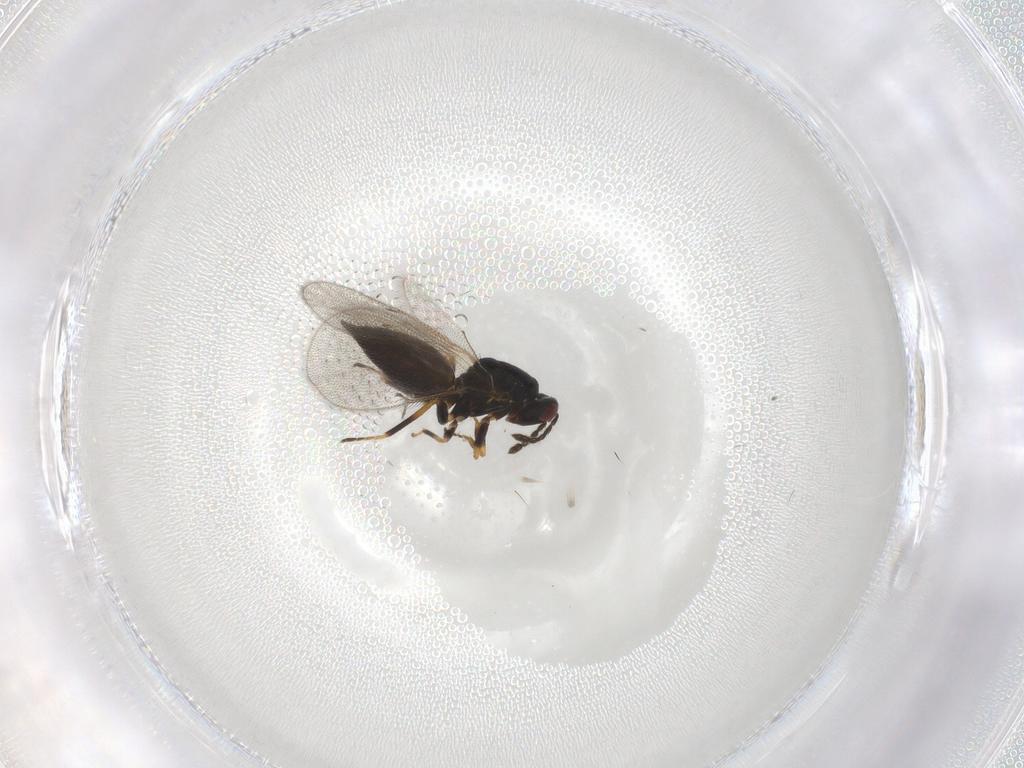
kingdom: Animalia
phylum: Arthropoda
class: Insecta
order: Hymenoptera
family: Eulophidae
